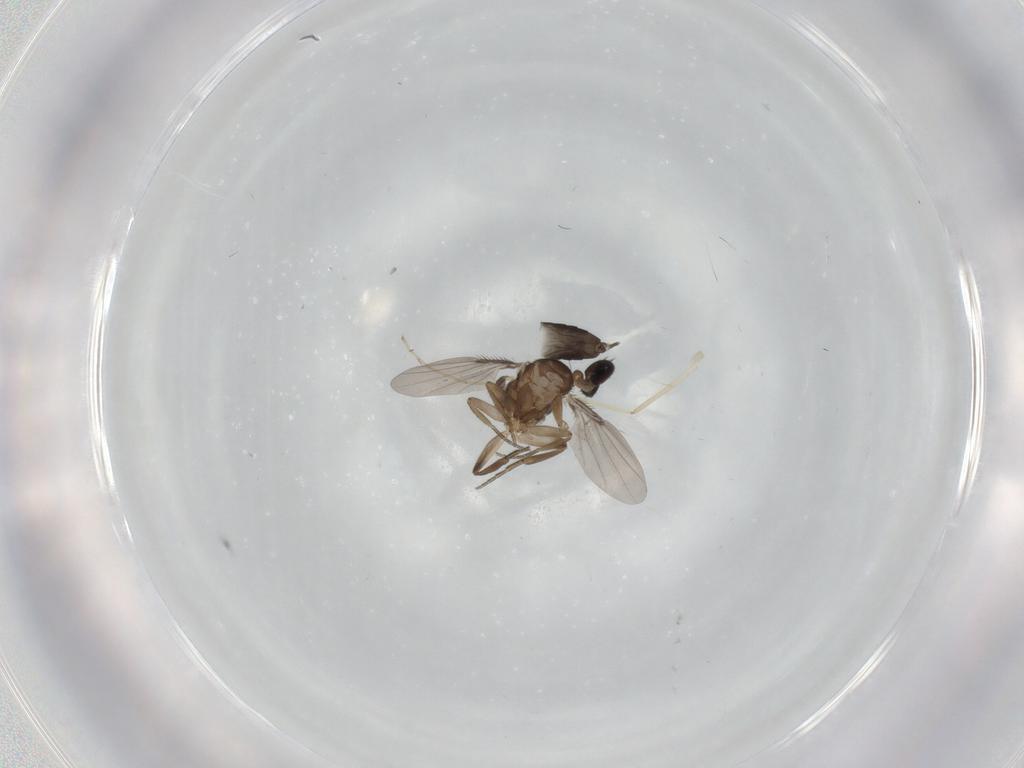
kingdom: Animalia
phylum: Arthropoda
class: Insecta
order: Diptera
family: Phoridae
